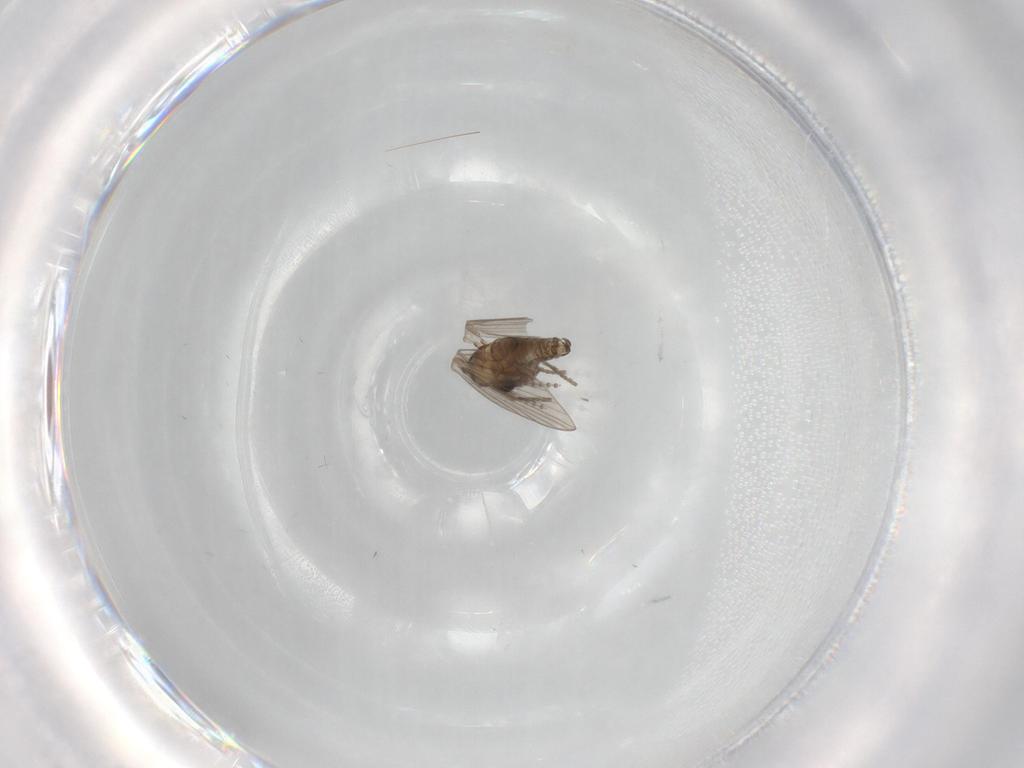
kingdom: Animalia
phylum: Arthropoda
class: Insecta
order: Diptera
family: Psychodidae
